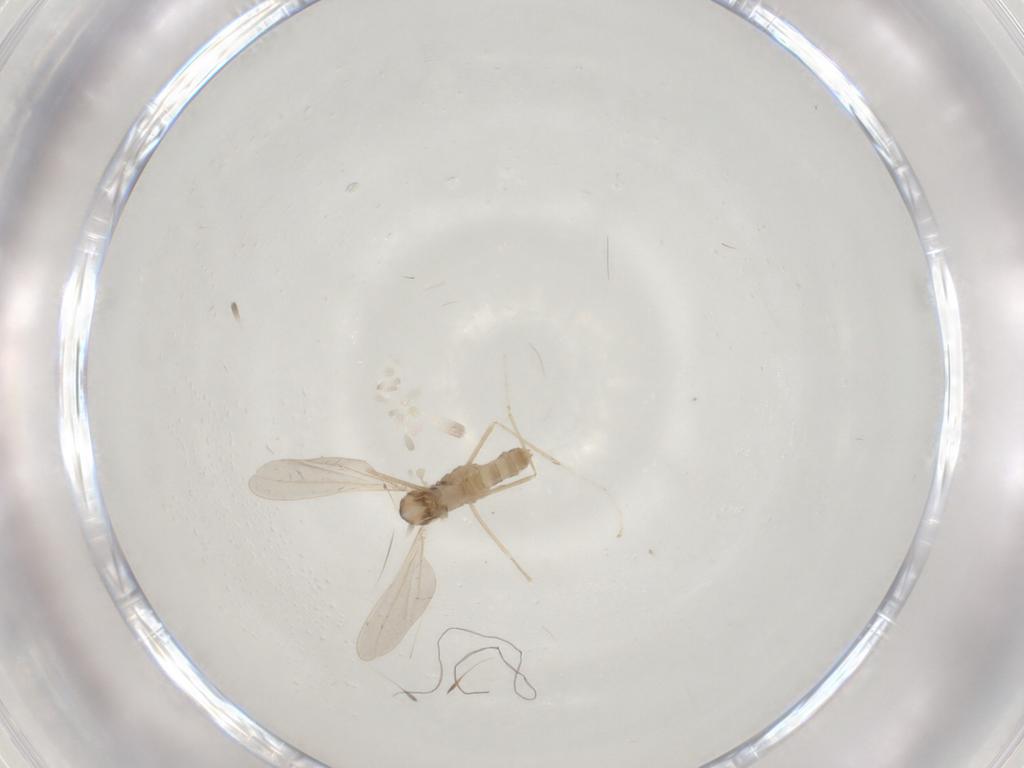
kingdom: Animalia
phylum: Arthropoda
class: Insecta
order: Diptera
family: Cecidomyiidae
